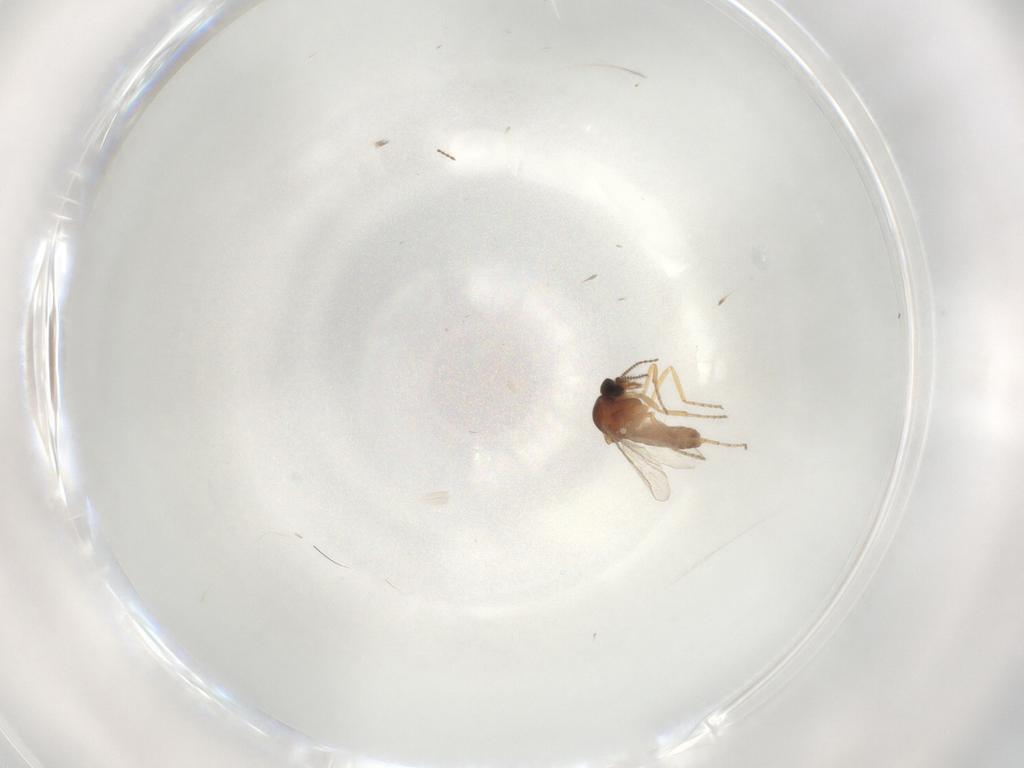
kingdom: Animalia
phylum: Arthropoda
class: Insecta
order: Diptera
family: Ceratopogonidae
